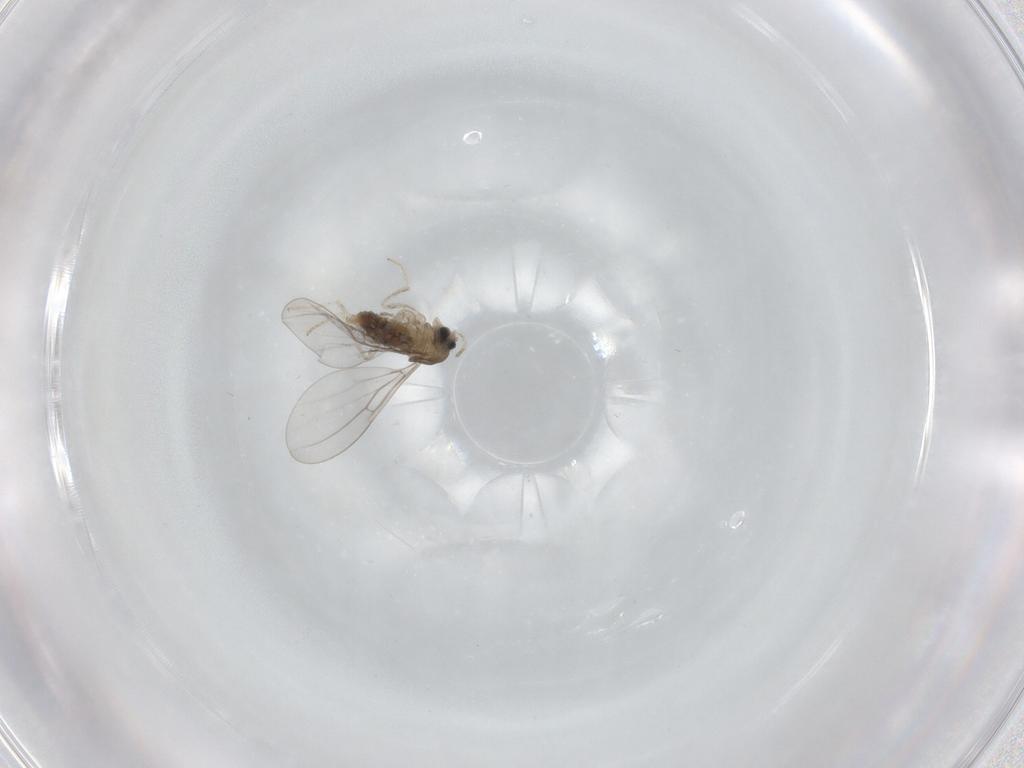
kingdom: Animalia
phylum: Arthropoda
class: Insecta
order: Diptera
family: Cecidomyiidae
